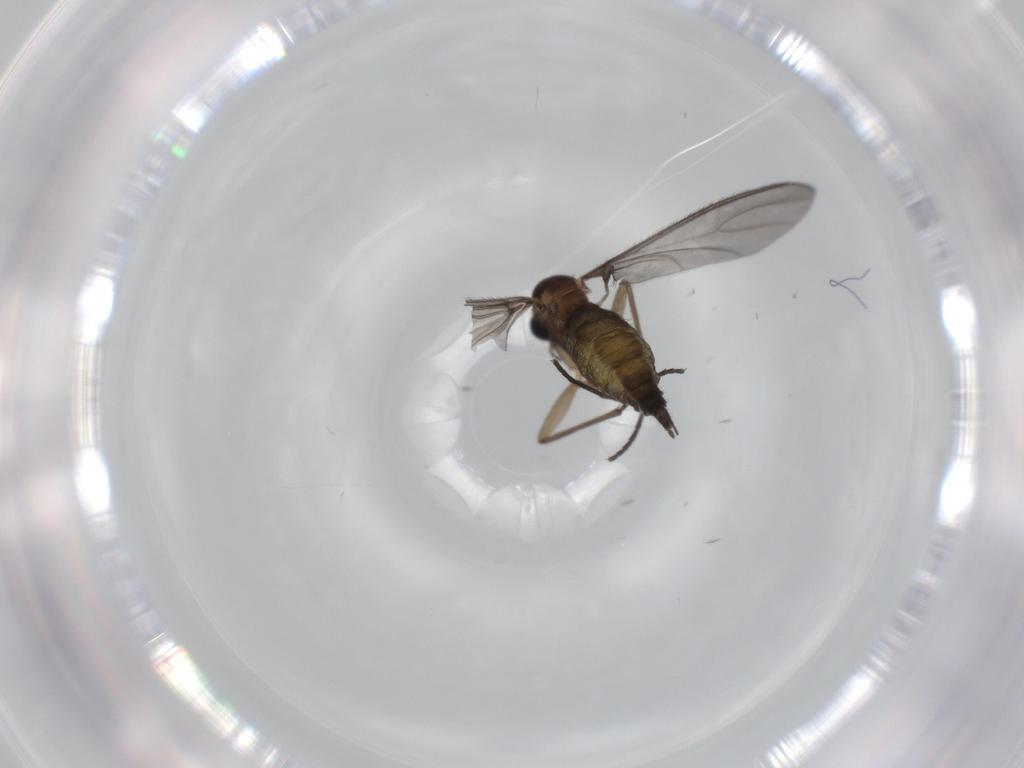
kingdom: Animalia
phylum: Arthropoda
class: Insecta
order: Diptera
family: Sciaridae
